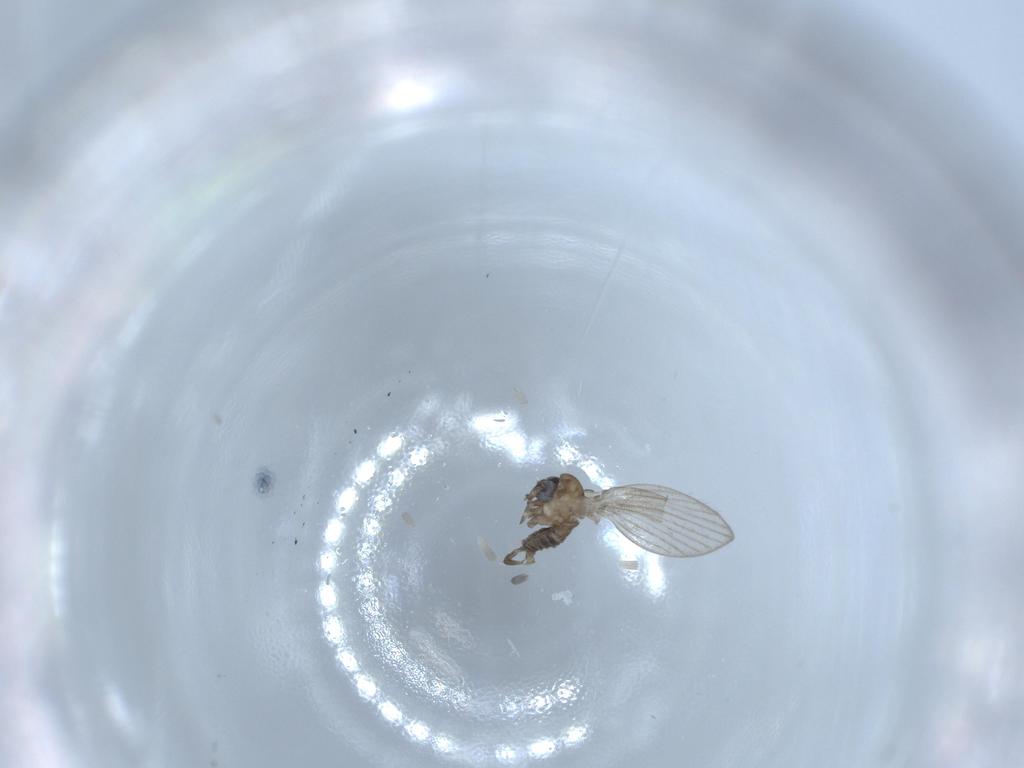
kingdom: Animalia
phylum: Arthropoda
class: Insecta
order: Diptera
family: Psychodidae
